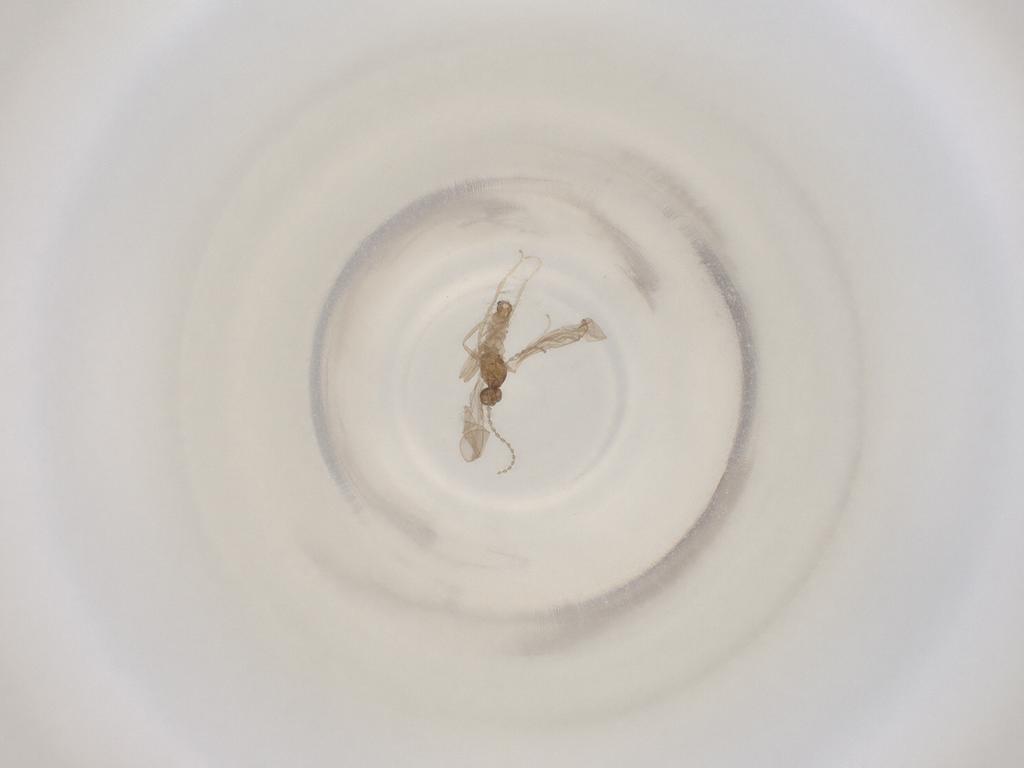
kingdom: Animalia
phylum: Arthropoda
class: Insecta
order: Diptera
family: Cecidomyiidae
